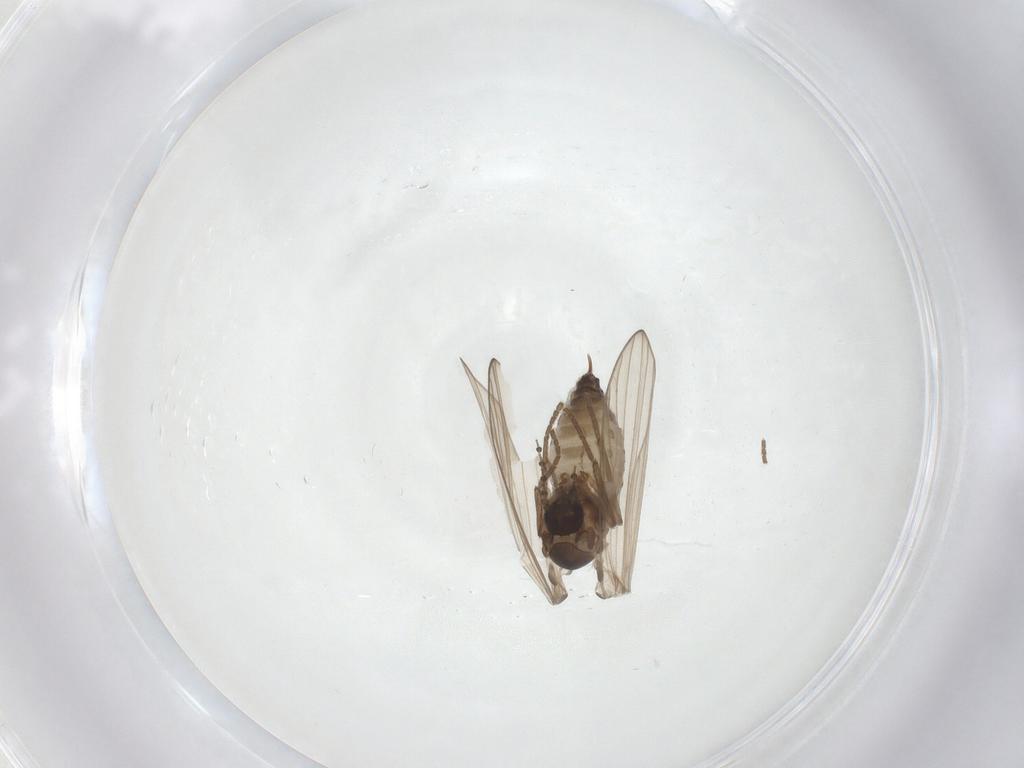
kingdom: Animalia
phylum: Arthropoda
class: Insecta
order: Diptera
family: Psychodidae
